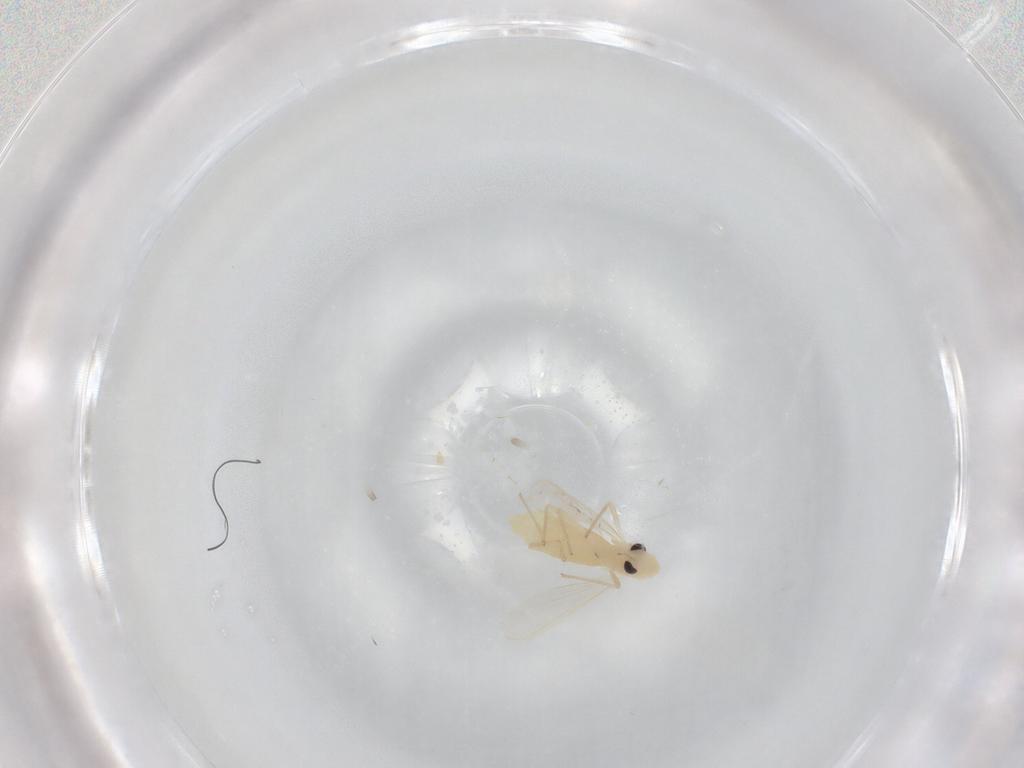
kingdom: Animalia
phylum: Arthropoda
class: Insecta
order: Diptera
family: Chironomidae
